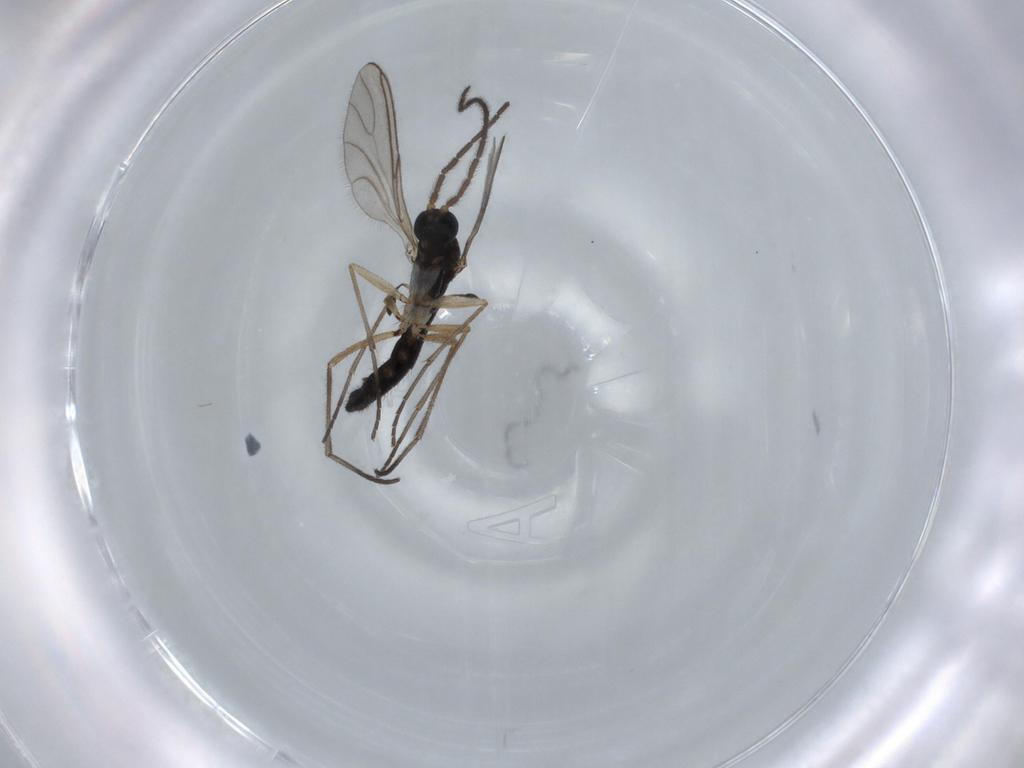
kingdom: Animalia
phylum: Arthropoda
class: Insecta
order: Diptera
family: Sciaridae
